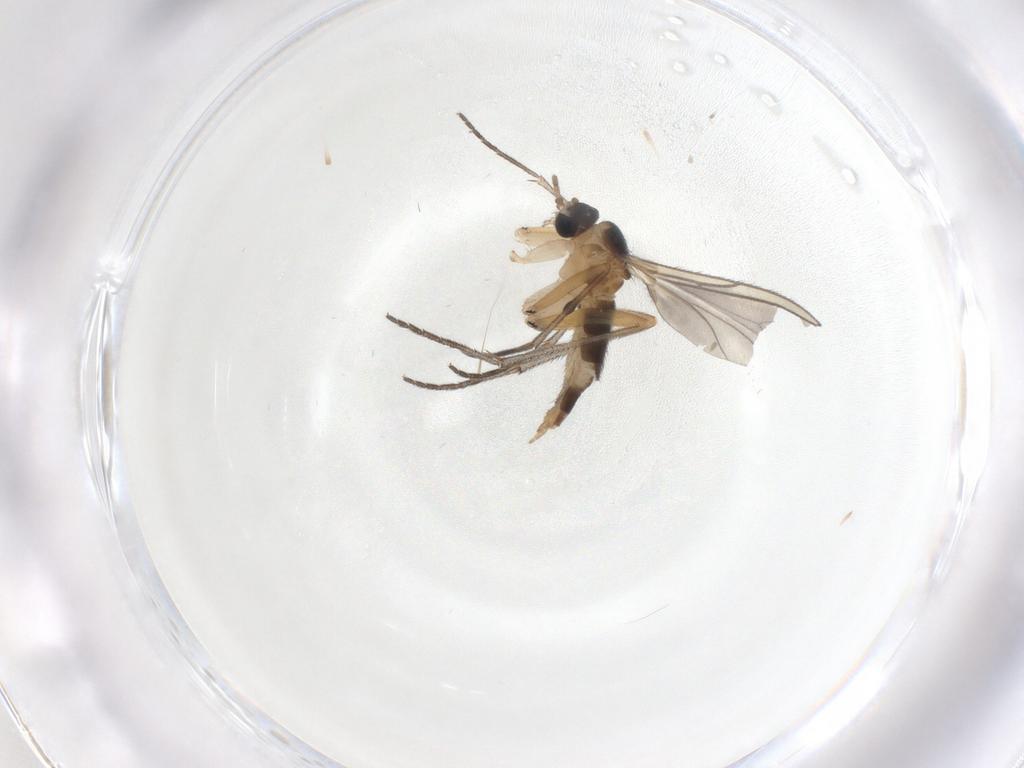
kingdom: Animalia
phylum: Arthropoda
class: Insecta
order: Diptera
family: Sciaridae
